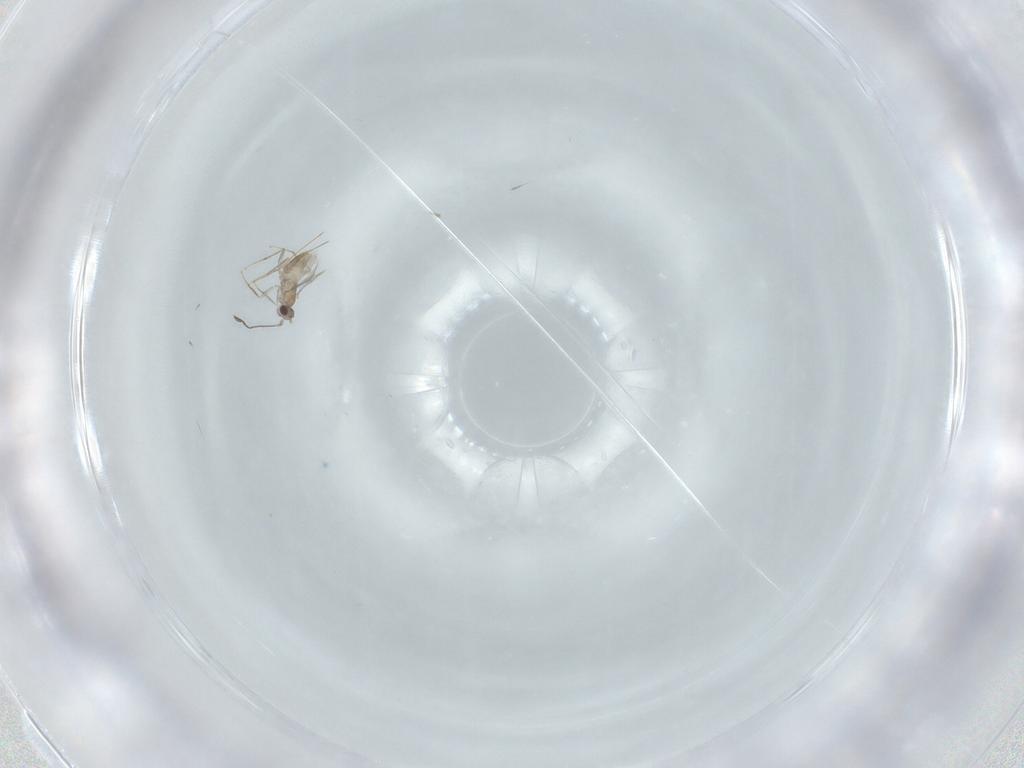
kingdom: Animalia
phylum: Arthropoda
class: Insecta
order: Hymenoptera
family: Mymaridae
